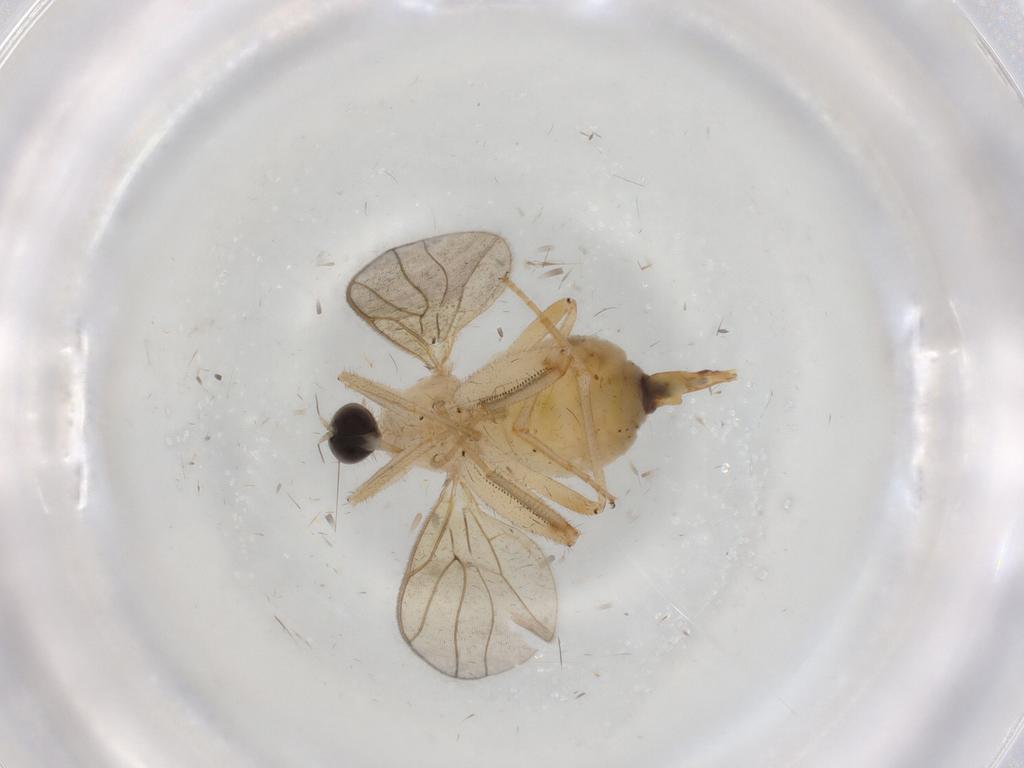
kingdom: Animalia
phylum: Arthropoda
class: Insecta
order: Diptera
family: Hybotidae
